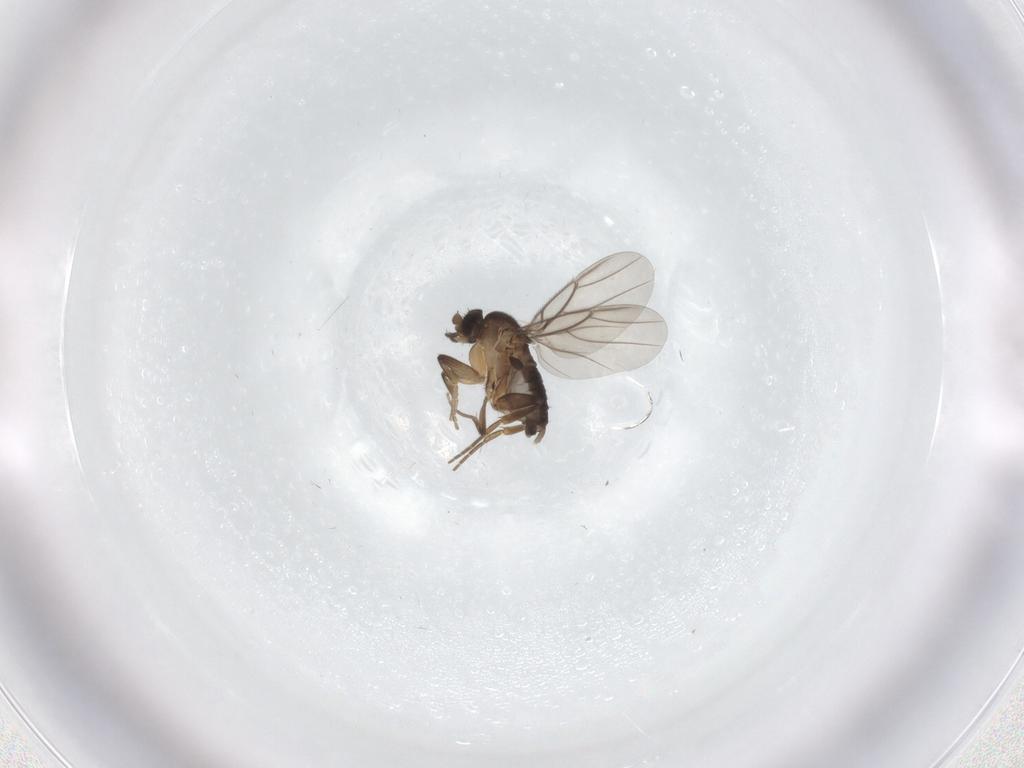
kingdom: Animalia
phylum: Arthropoda
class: Insecta
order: Diptera
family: Phoridae
